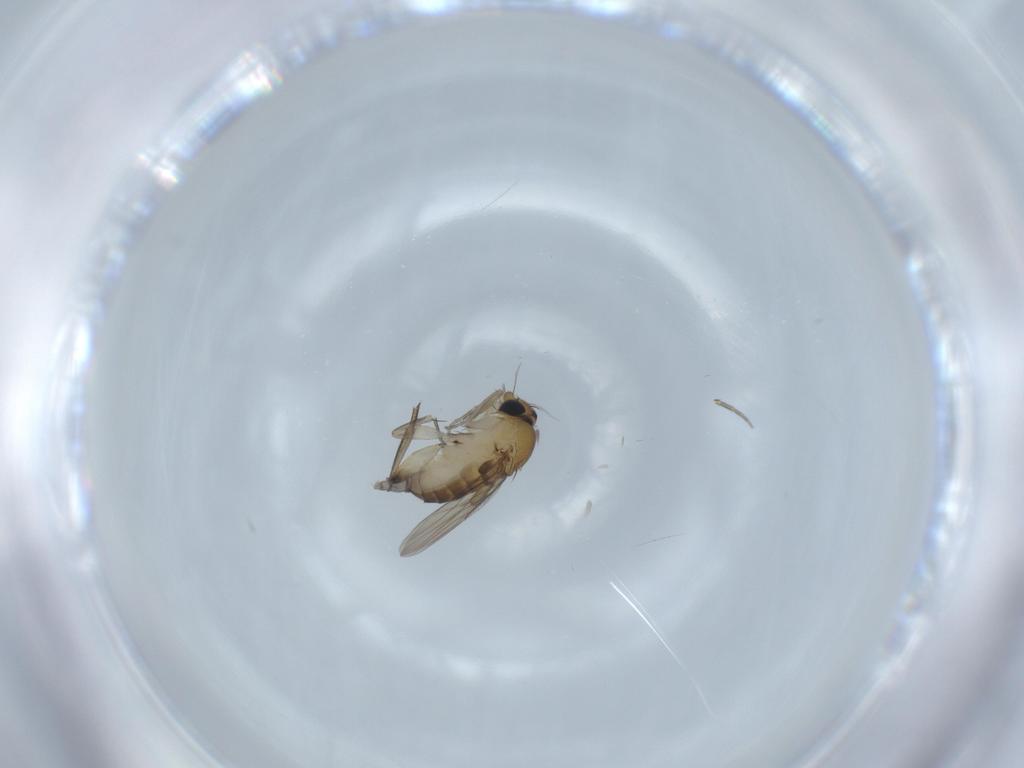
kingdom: Animalia
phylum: Arthropoda
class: Insecta
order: Diptera
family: Phoridae
